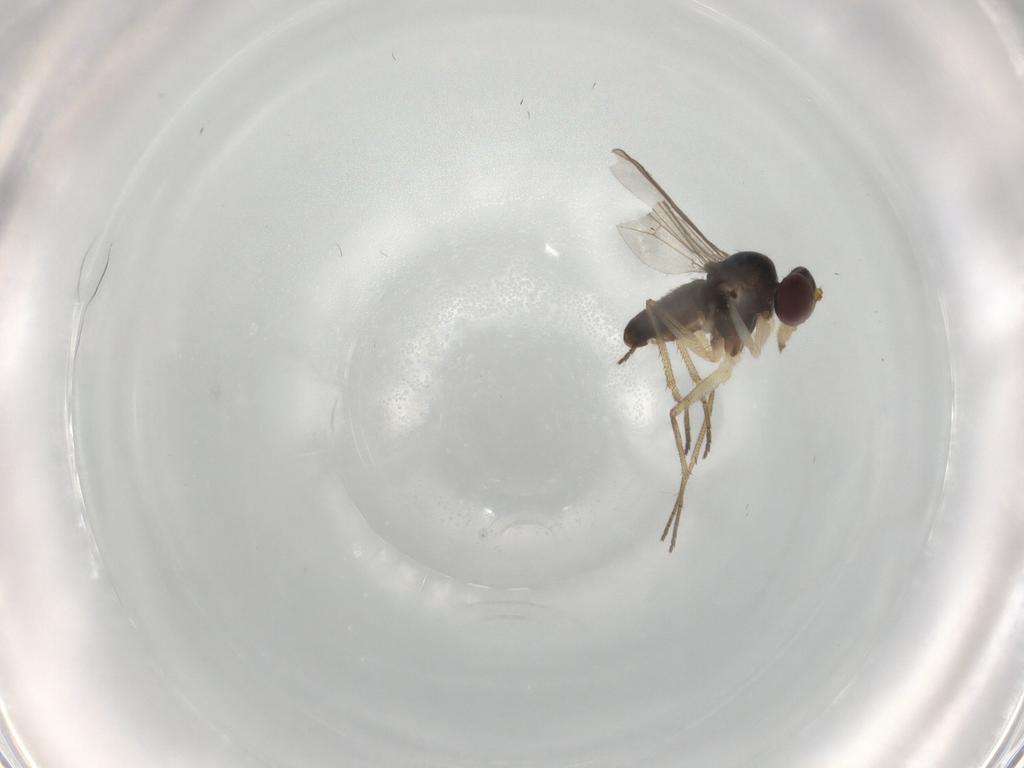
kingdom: Animalia
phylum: Arthropoda
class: Insecta
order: Diptera
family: Dolichopodidae
